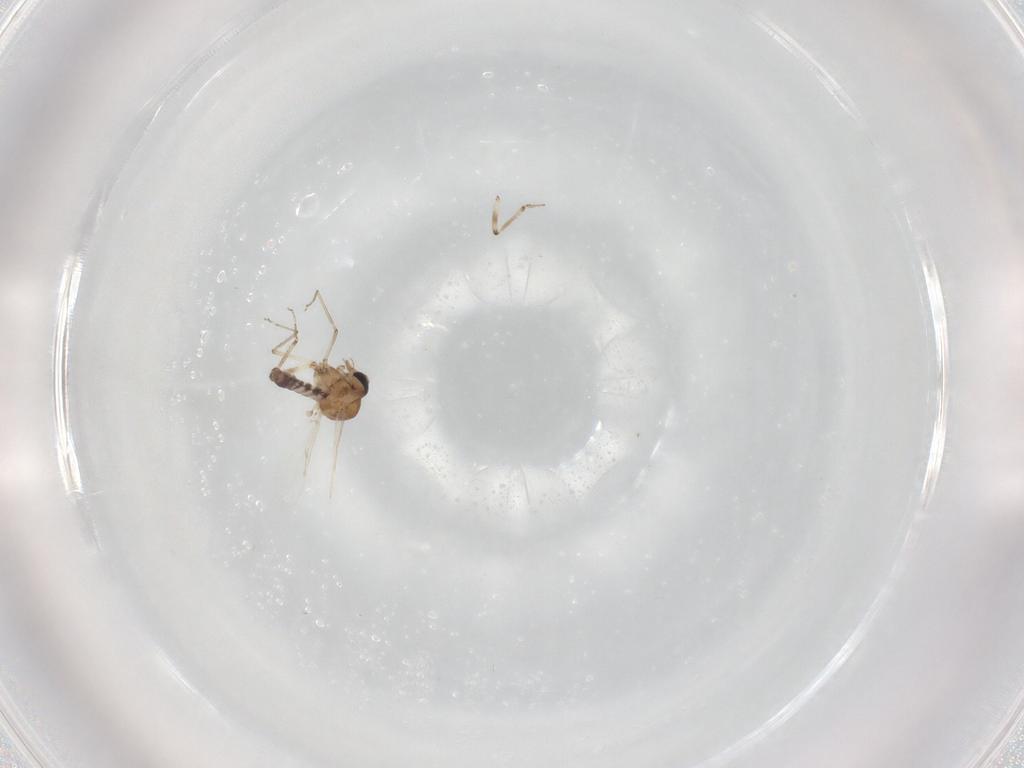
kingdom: Animalia
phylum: Arthropoda
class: Insecta
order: Diptera
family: Ceratopogonidae
